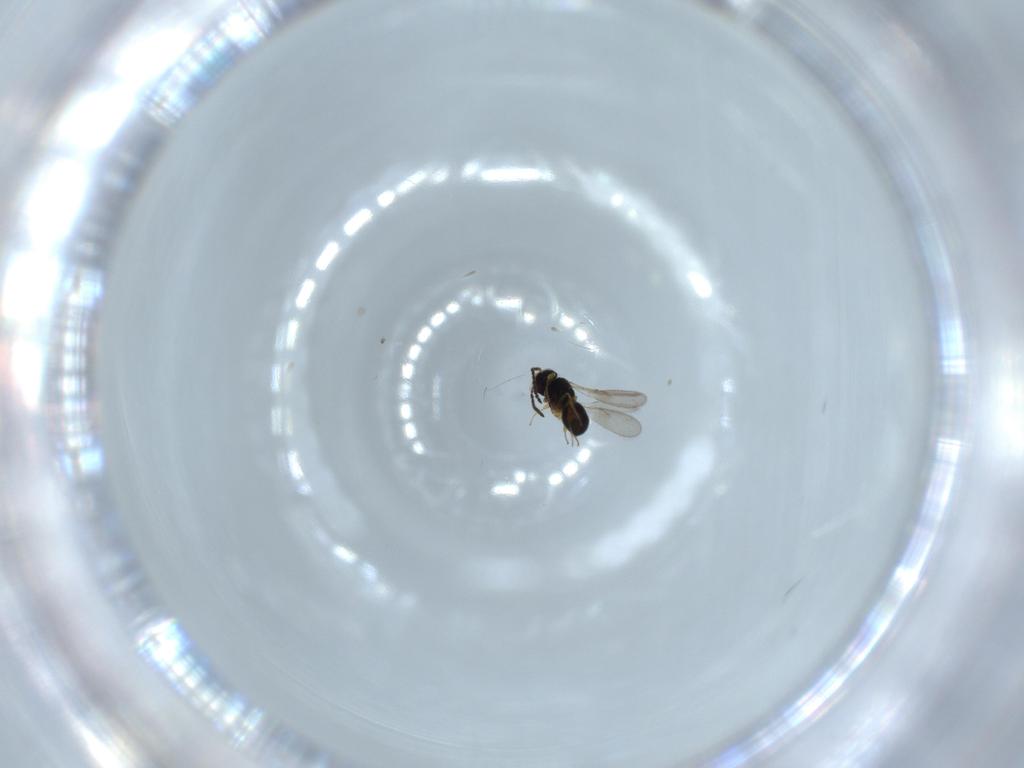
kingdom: Animalia
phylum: Arthropoda
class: Insecta
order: Hymenoptera
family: Scelionidae
